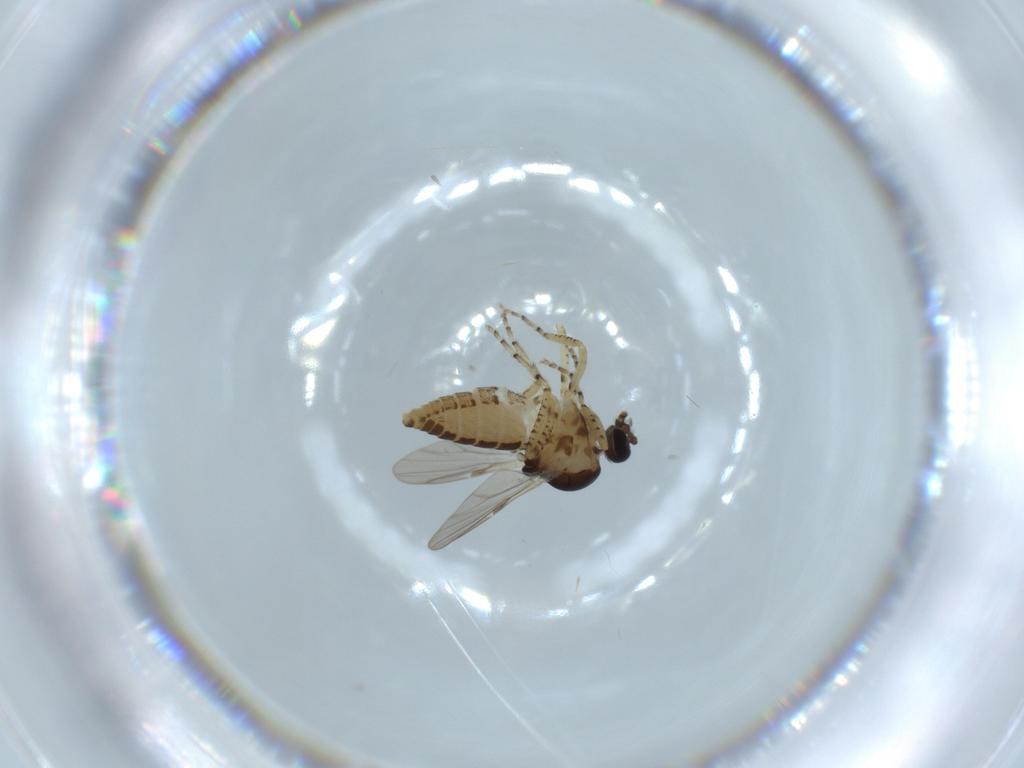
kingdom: Animalia
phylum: Arthropoda
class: Insecta
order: Diptera
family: Ceratopogonidae
